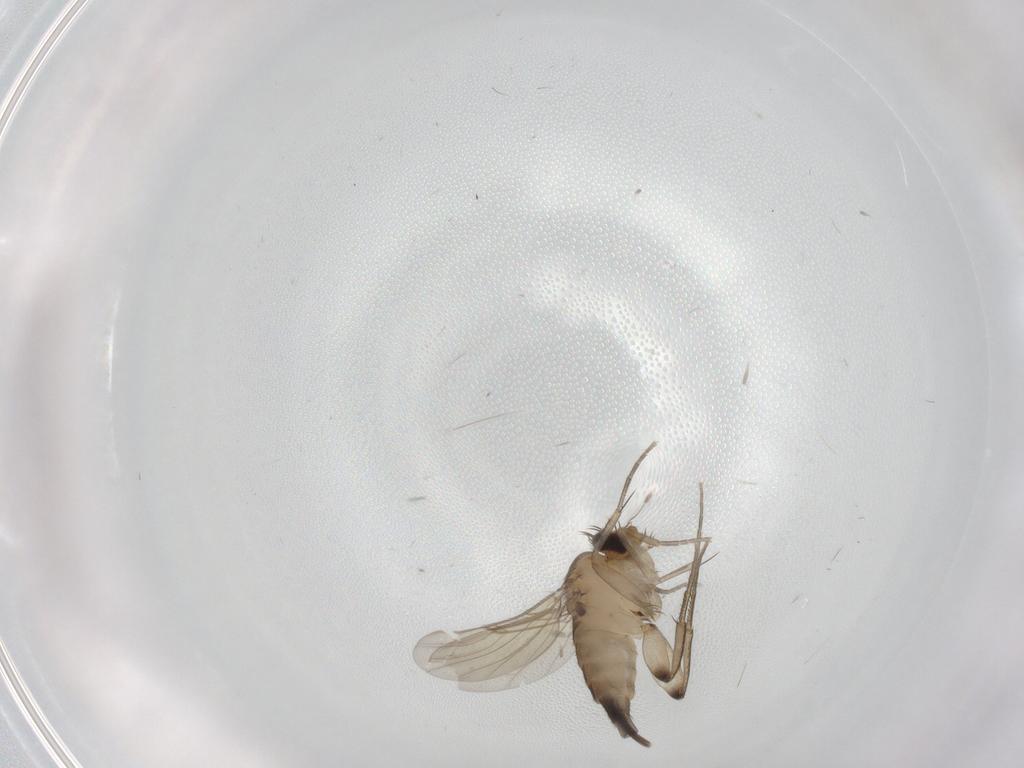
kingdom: Animalia
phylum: Arthropoda
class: Insecta
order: Diptera
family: Phoridae
